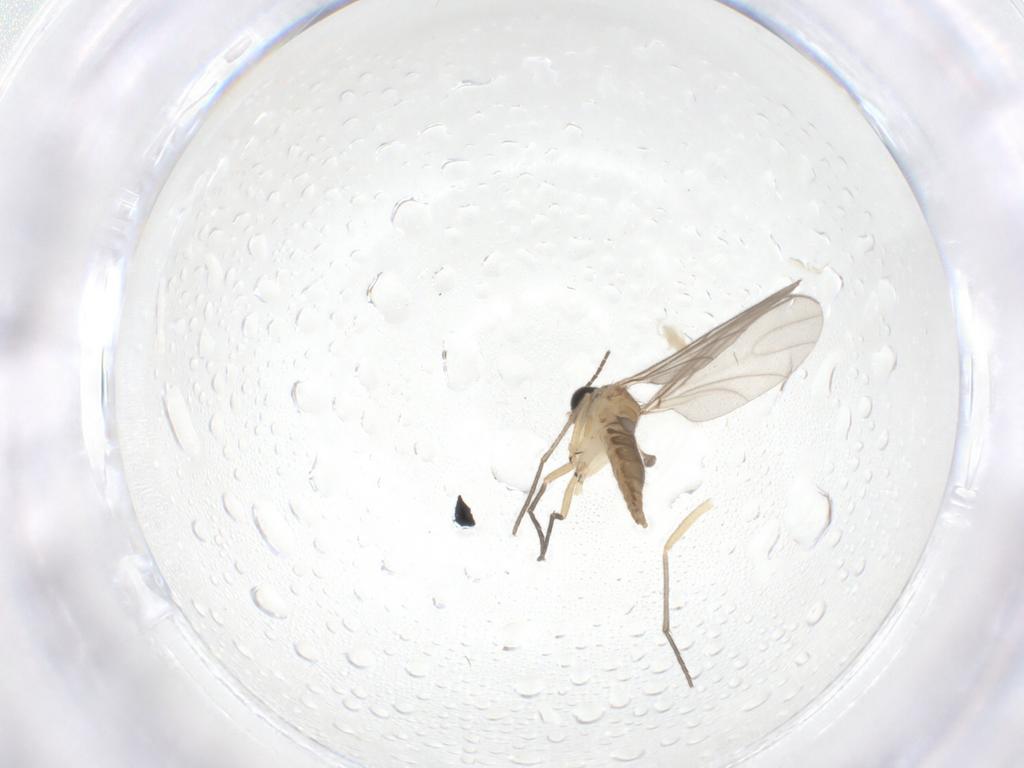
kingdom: Animalia
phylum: Arthropoda
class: Insecta
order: Diptera
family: Sciaridae
